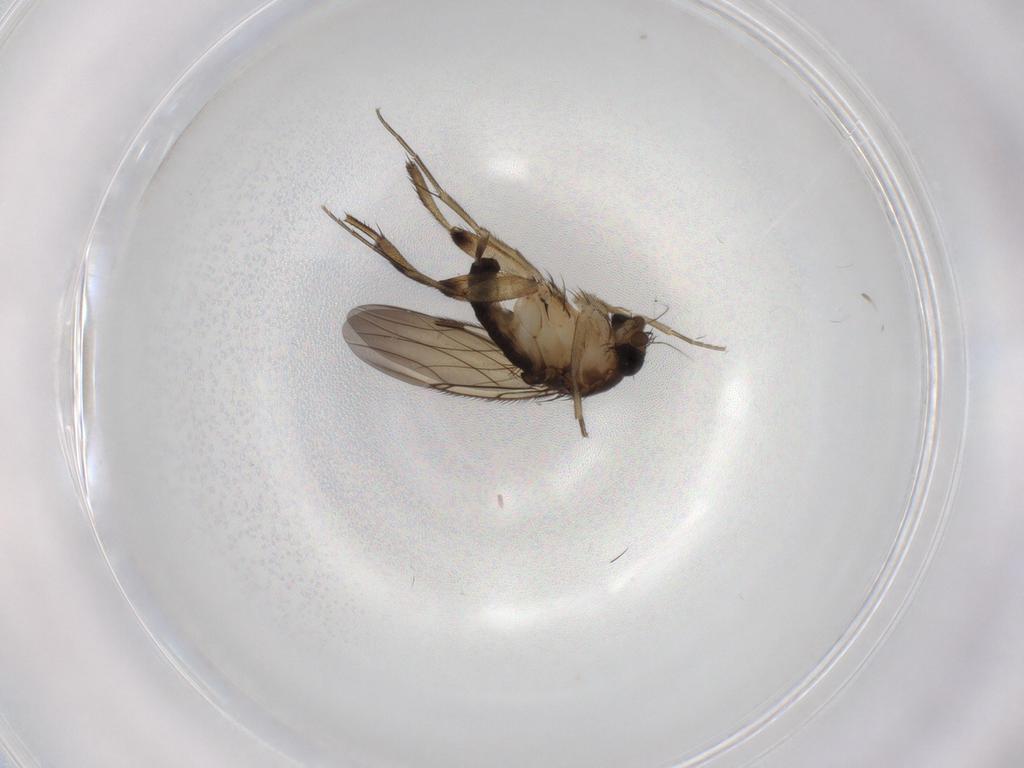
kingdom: Animalia
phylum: Arthropoda
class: Insecta
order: Diptera
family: Phoridae
